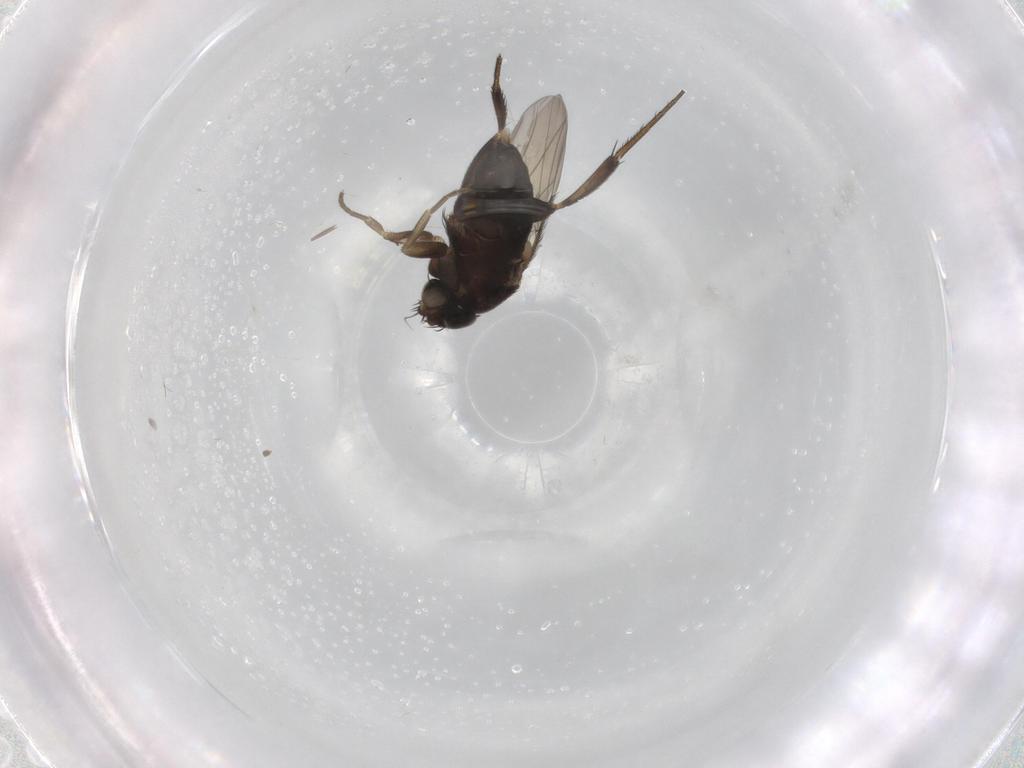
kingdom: Animalia
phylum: Arthropoda
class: Insecta
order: Diptera
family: Phoridae
